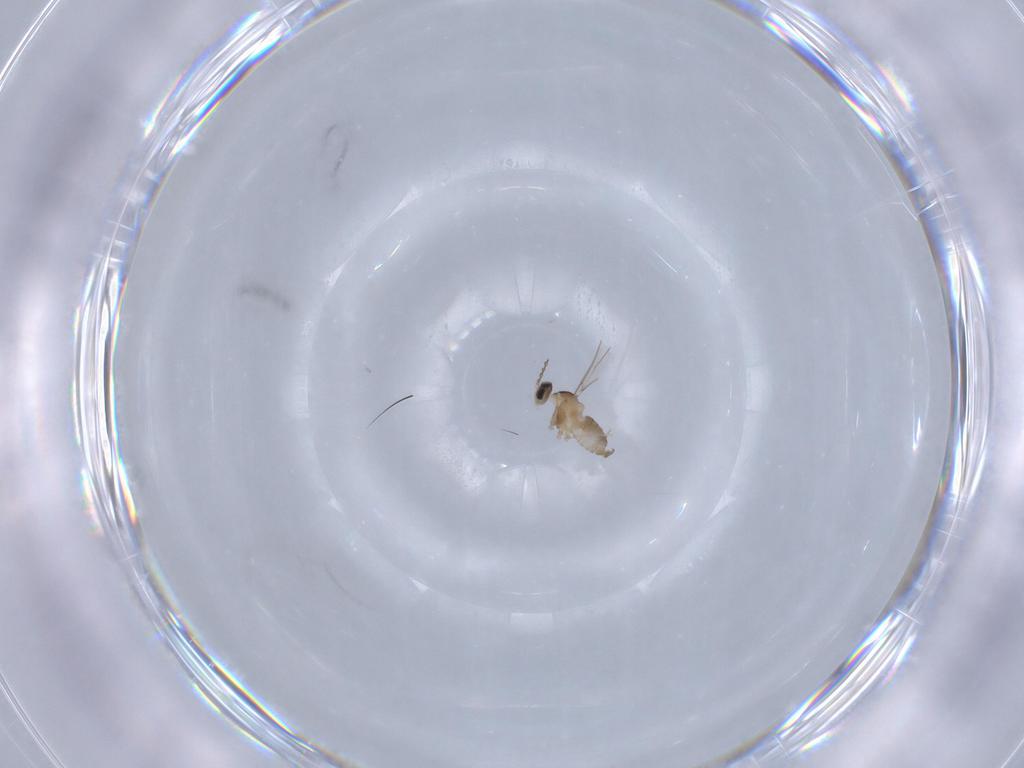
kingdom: Animalia
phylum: Arthropoda
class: Insecta
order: Diptera
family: Cecidomyiidae
